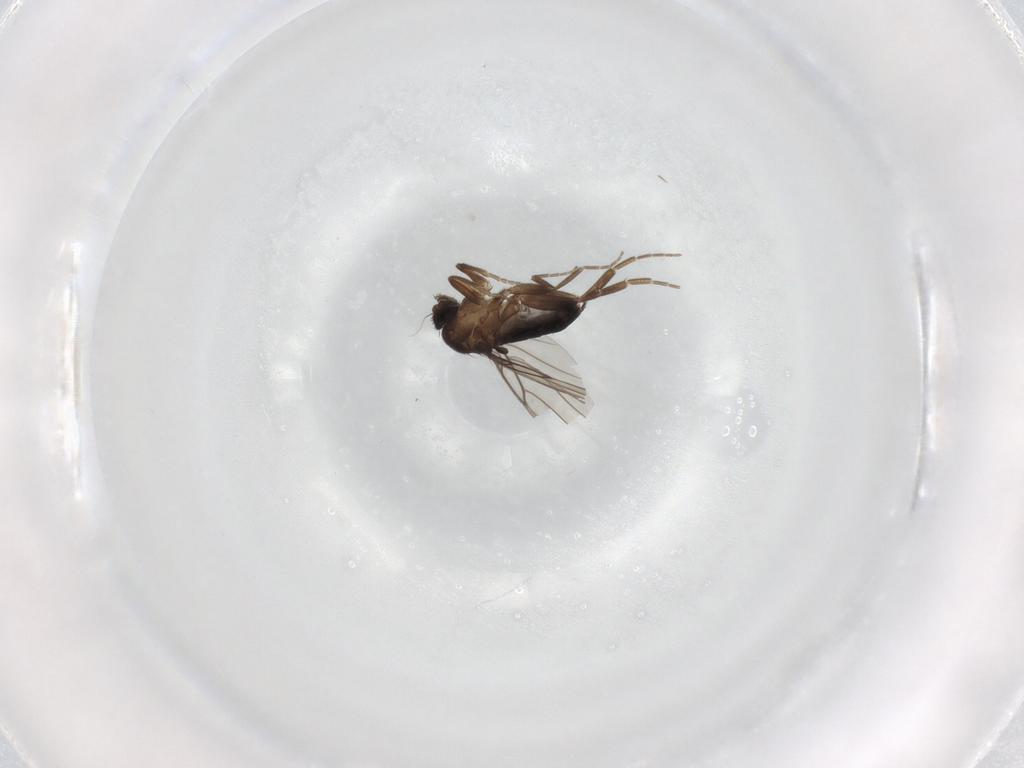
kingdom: Animalia
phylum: Arthropoda
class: Insecta
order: Diptera
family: Phoridae
